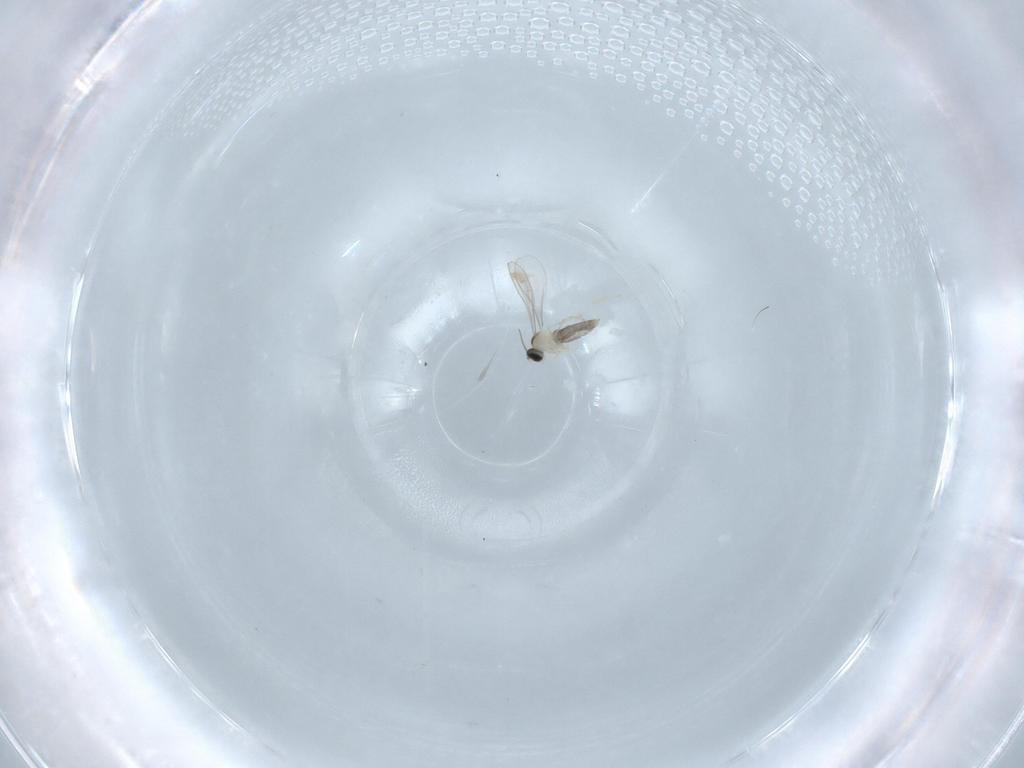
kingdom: Animalia
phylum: Arthropoda
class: Insecta
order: Diptera
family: Cecidomyiidae
